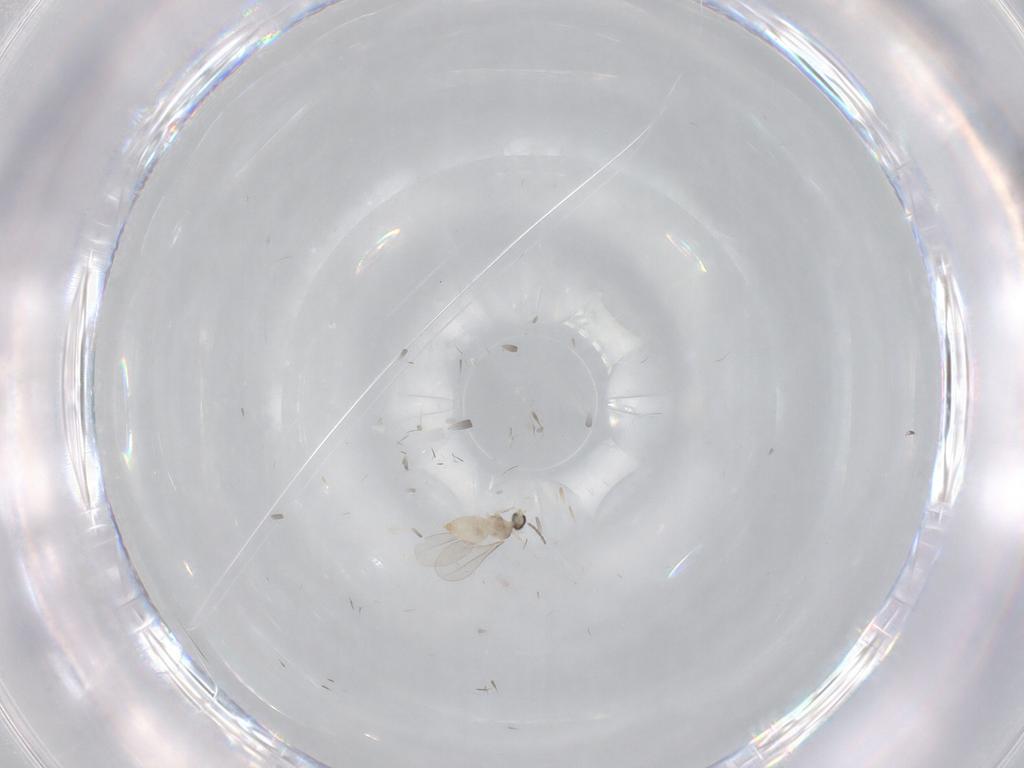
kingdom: Animalia
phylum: Arthropoda
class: Insecta
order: Diptera
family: Cecidomyiidae
